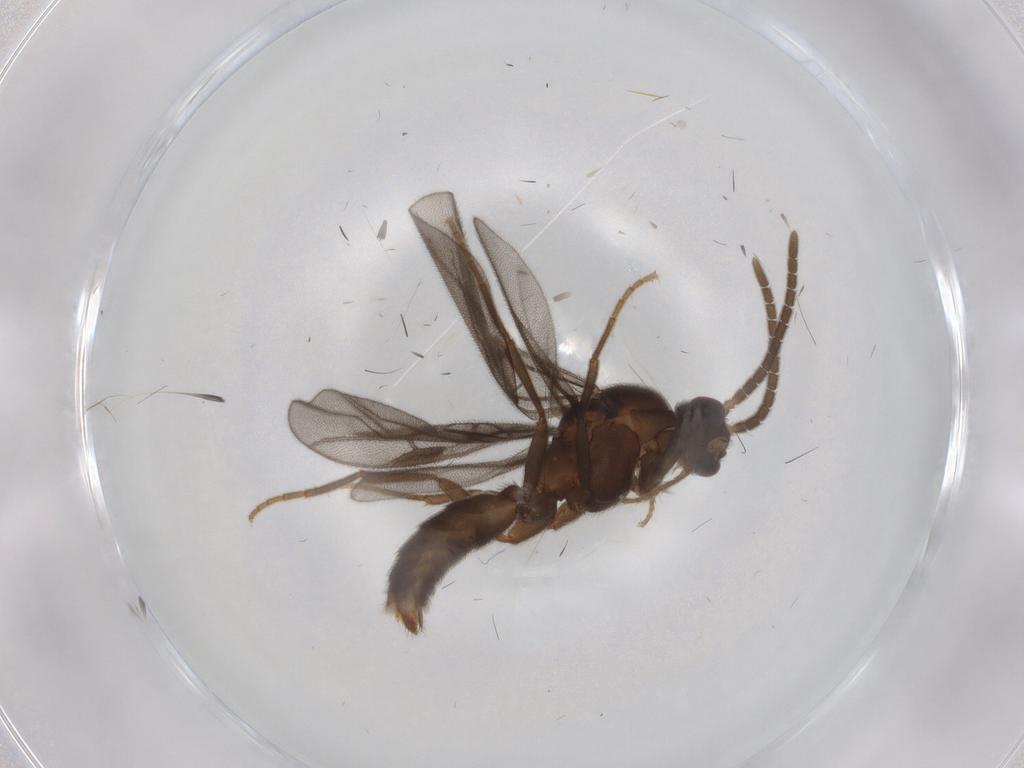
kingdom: Animalia
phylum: Arthropoda
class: Insecta
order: Hymenoptera
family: Formicidae
